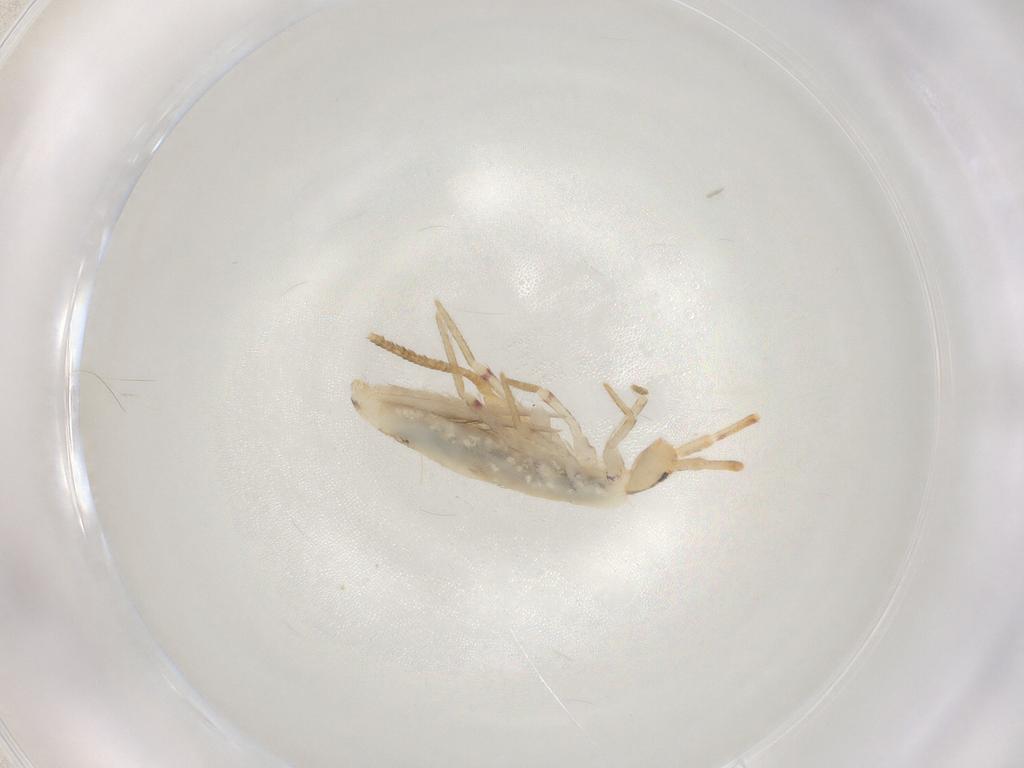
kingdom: Animalia
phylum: Arthropoda
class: Collembola
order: Poduromorpha
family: Hypogastruridae
